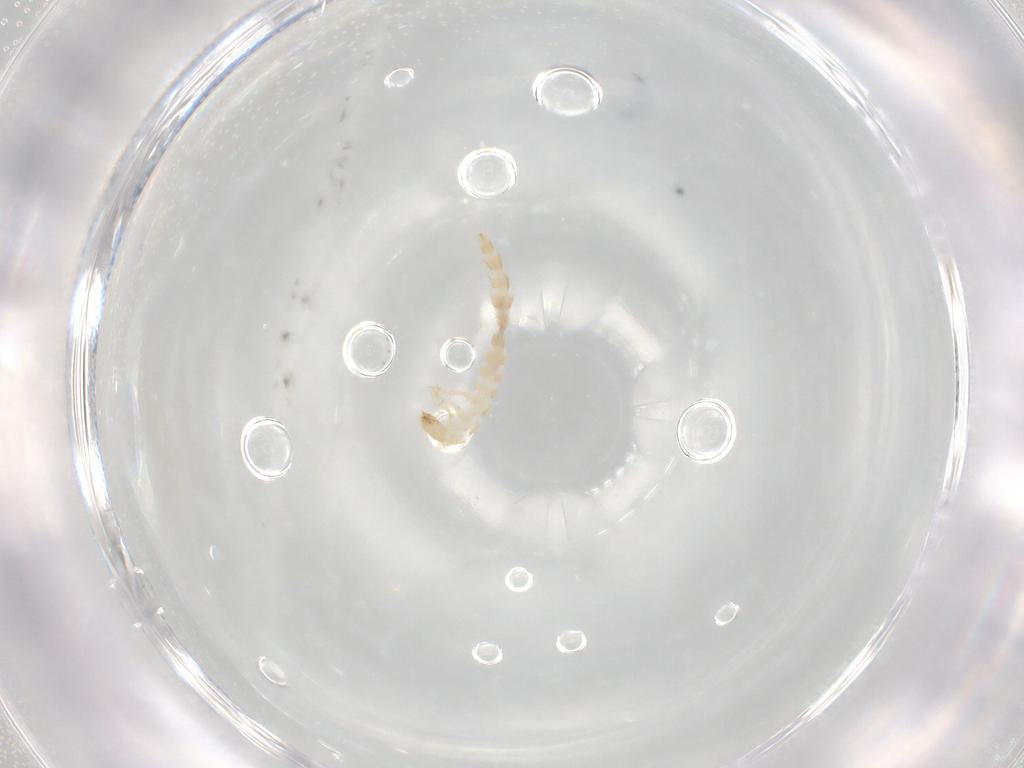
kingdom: Animalia
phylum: Arthropoda
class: Insecta
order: Coleoptera
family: Staphylinidae
